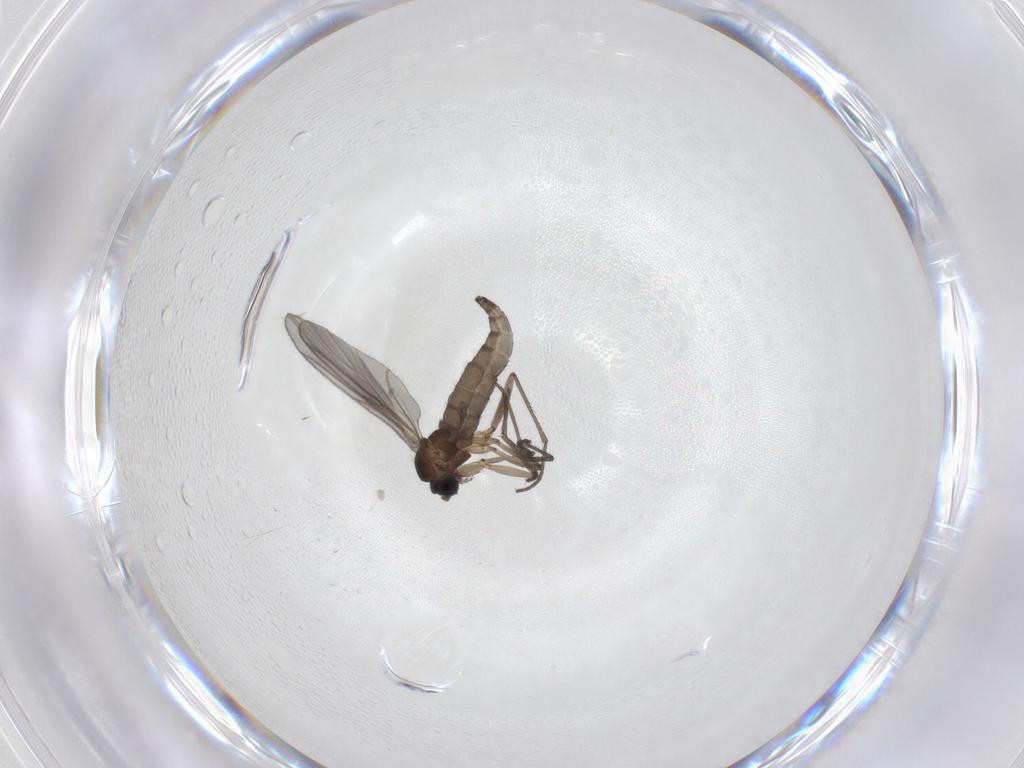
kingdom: Animalia
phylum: Arthropoda
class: Insecta
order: Diptera
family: Sciaridae
